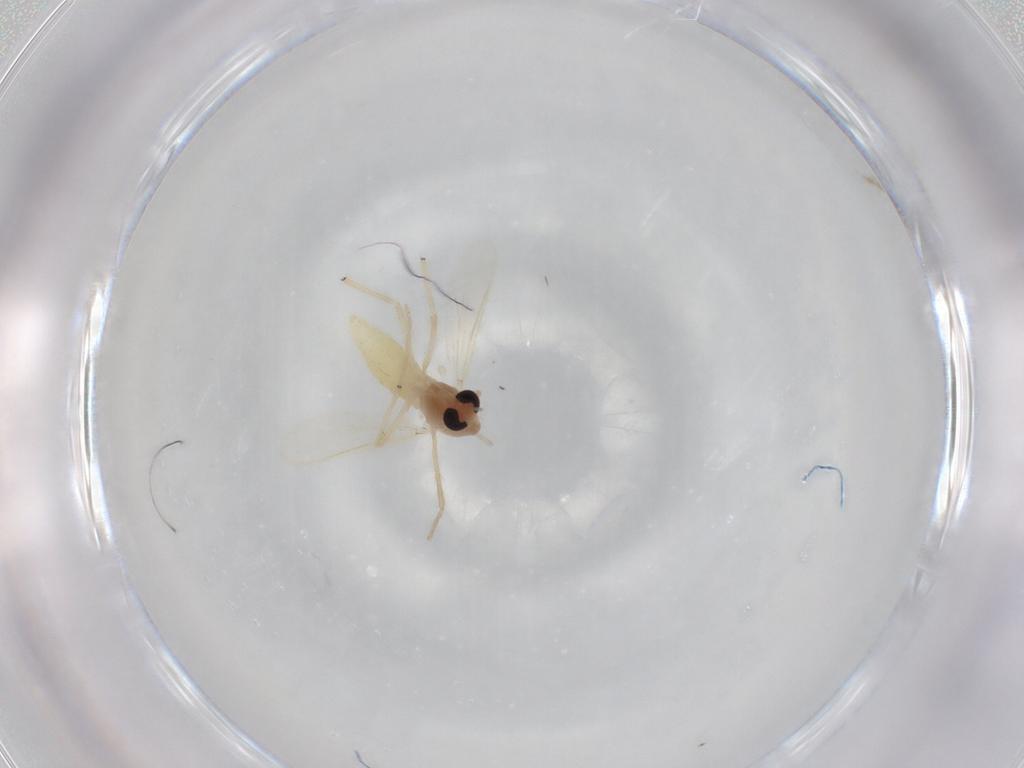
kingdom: Animalia
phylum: Arthropoda
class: Insecta
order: Diptera
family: Chironomidae
